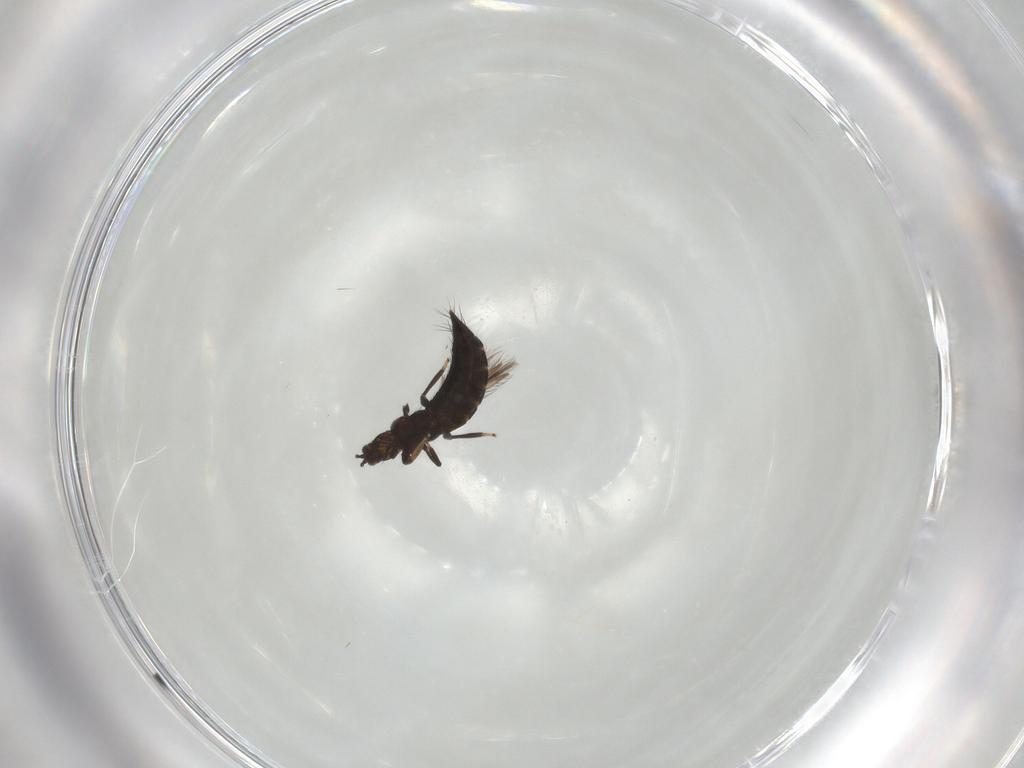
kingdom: Animalia
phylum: Arthropoda
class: Insecta
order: Thysanoptera
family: Thripidae
